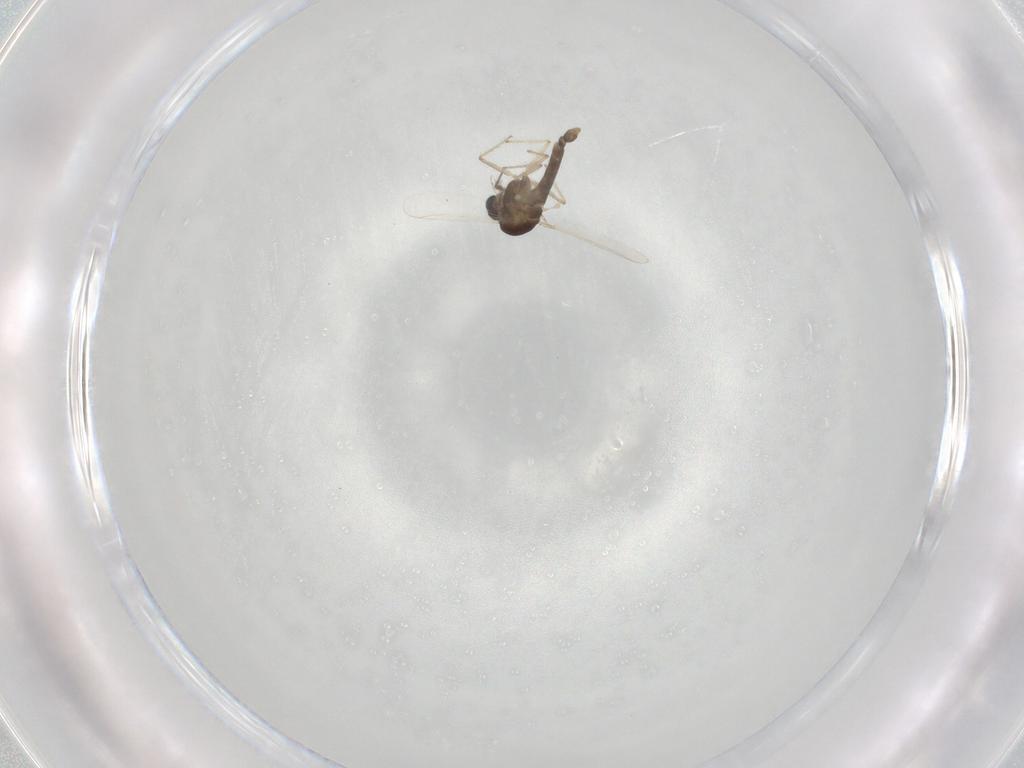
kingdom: Animalia
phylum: Arthropoda
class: Insecta
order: Diptera
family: Chironomidae
